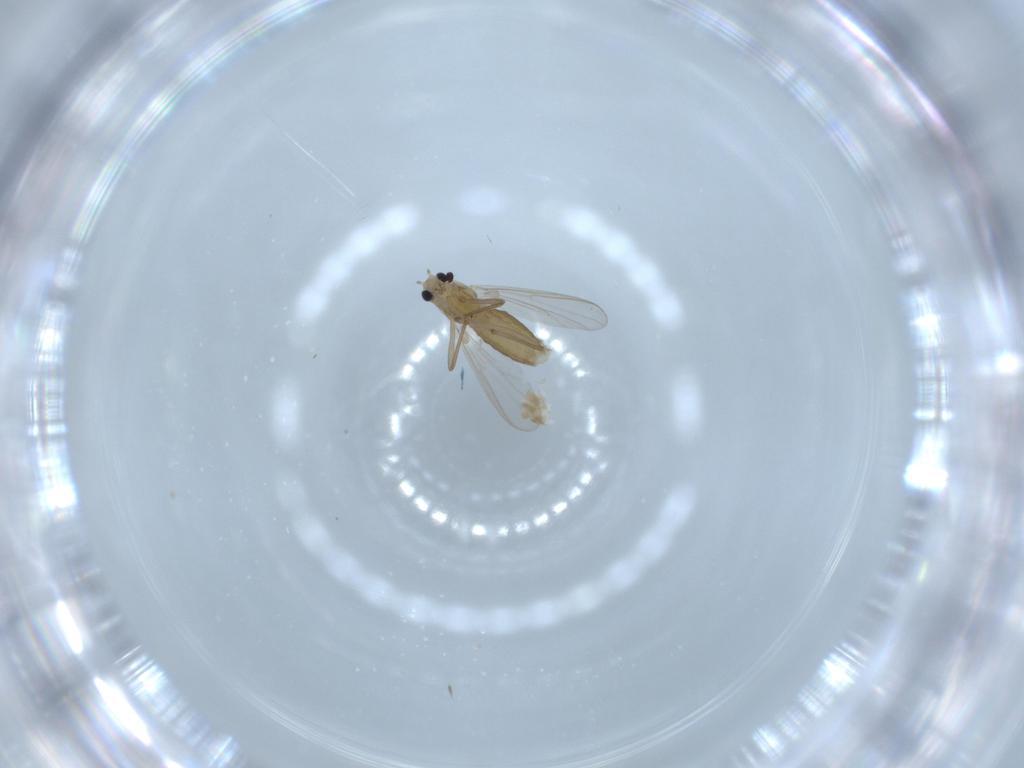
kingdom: Animalia
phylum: Arthropoda
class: Insecta
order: Diptera
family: Chironomidae
